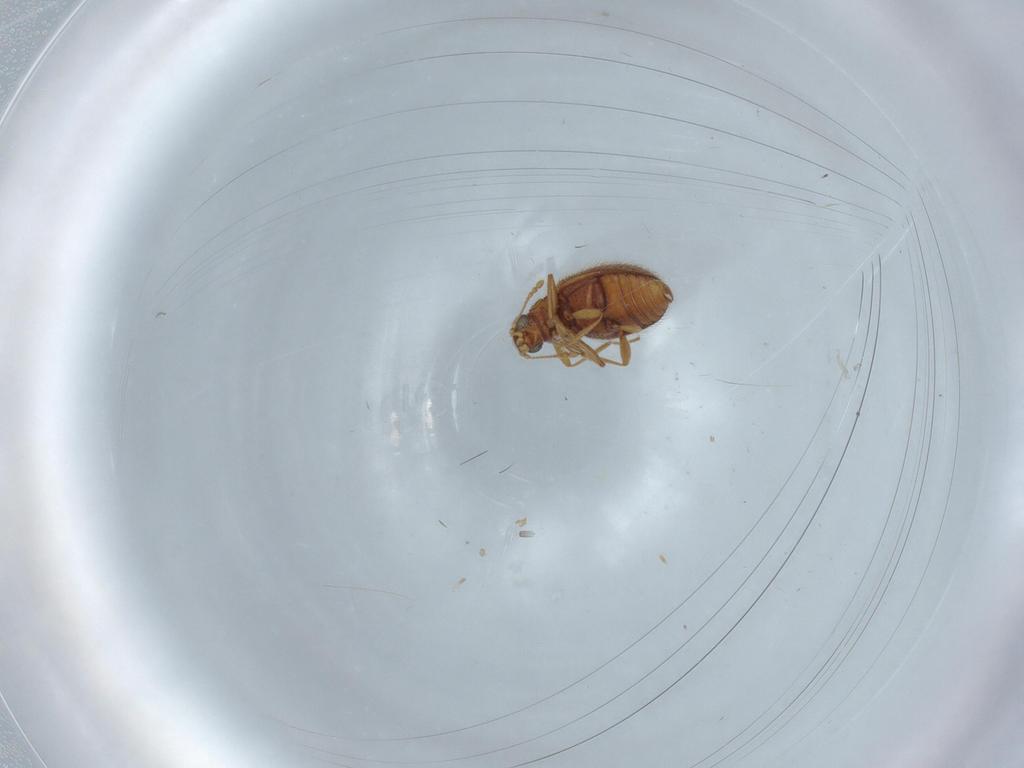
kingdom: Animalia
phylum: Arthropoda
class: Insecta
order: Coleoptera
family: Latridiidae
